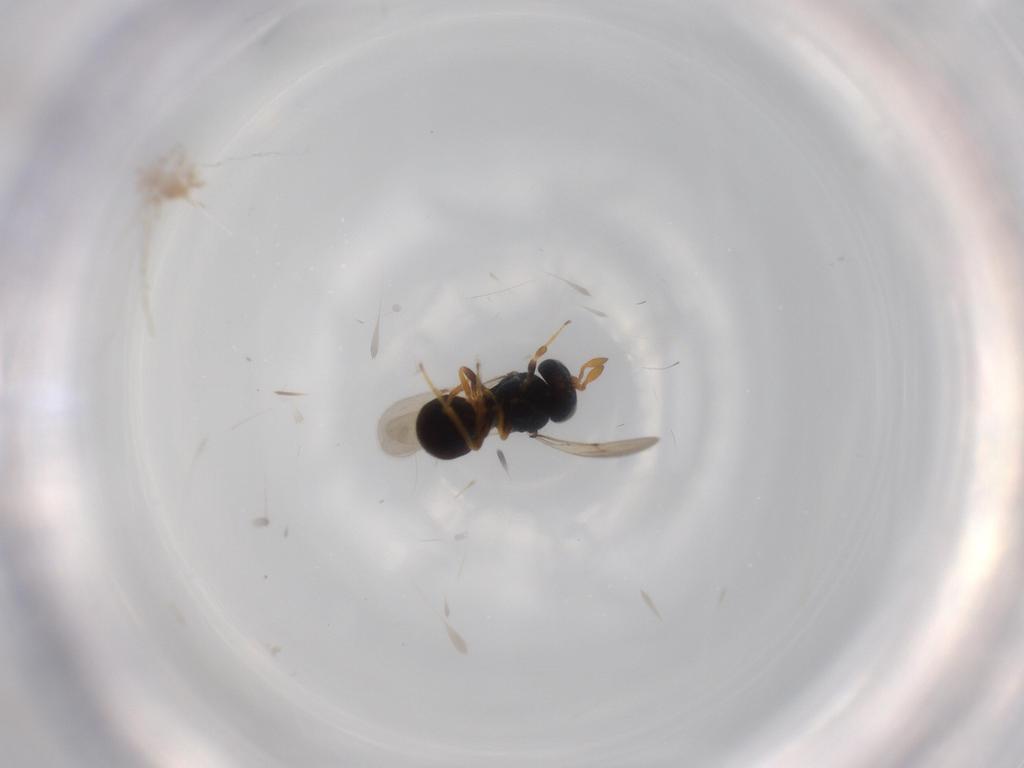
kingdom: Animalia
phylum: Arthropoda
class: Insecta
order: Hymenoptera
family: Scelionidae
